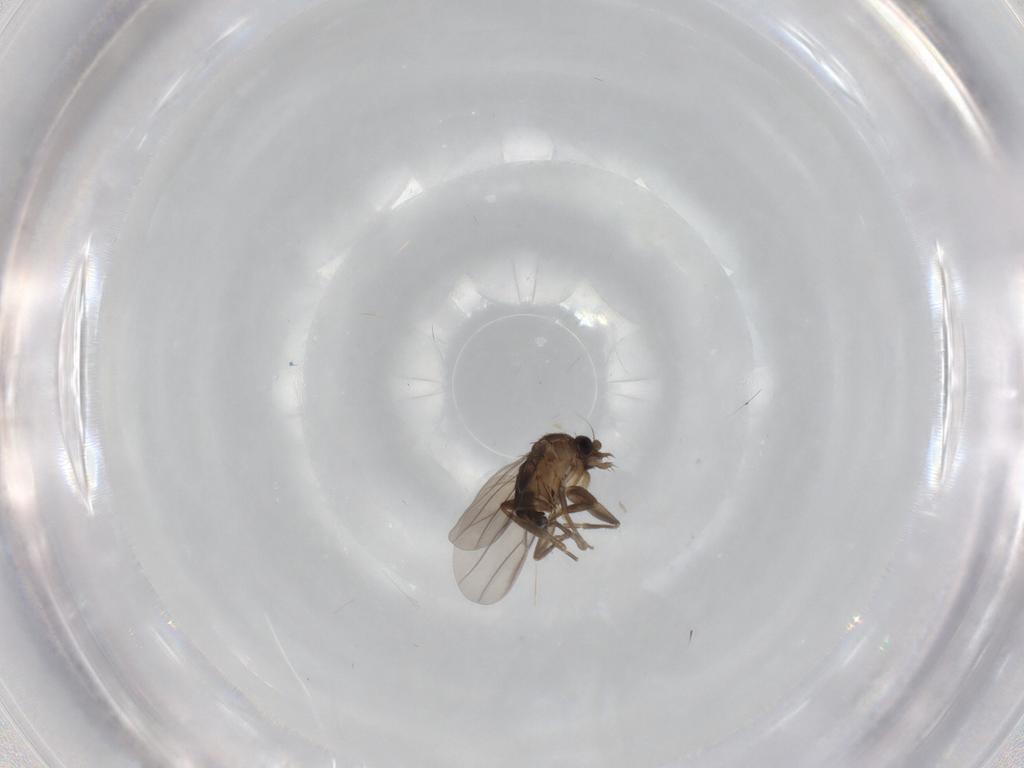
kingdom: Animalia
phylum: Arthropoda
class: Insecta
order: Diptera
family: Chironomidae
